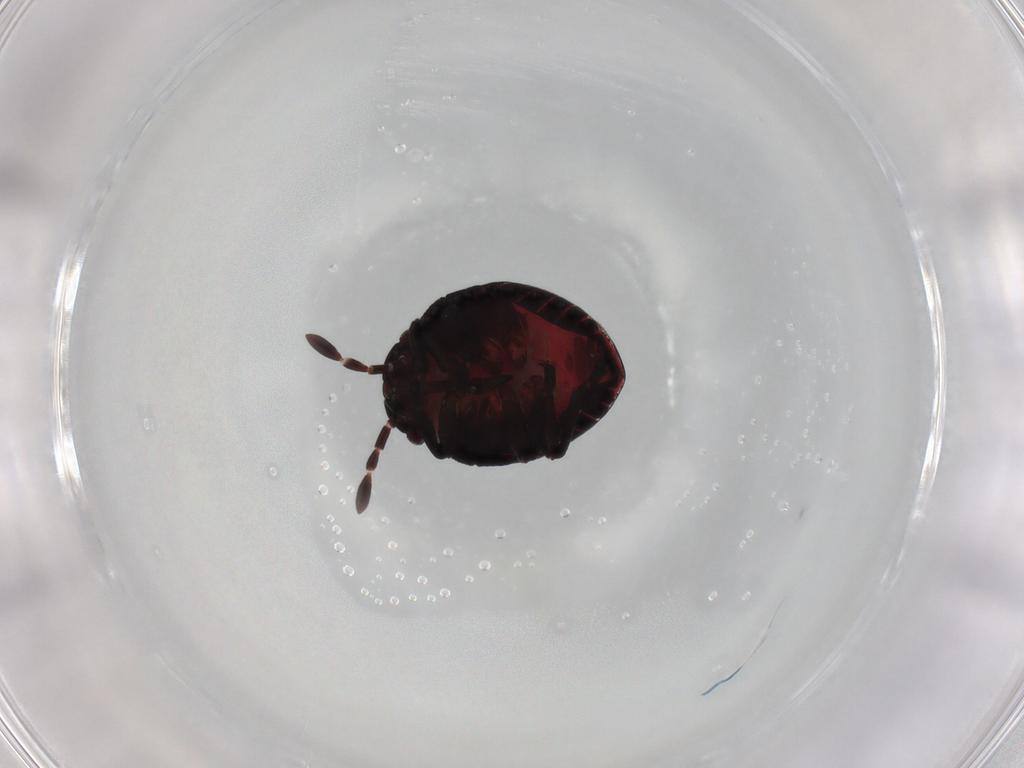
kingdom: Animalia
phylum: Arthropoda
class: Insecta
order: Hemiptera
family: Pentatomidae
